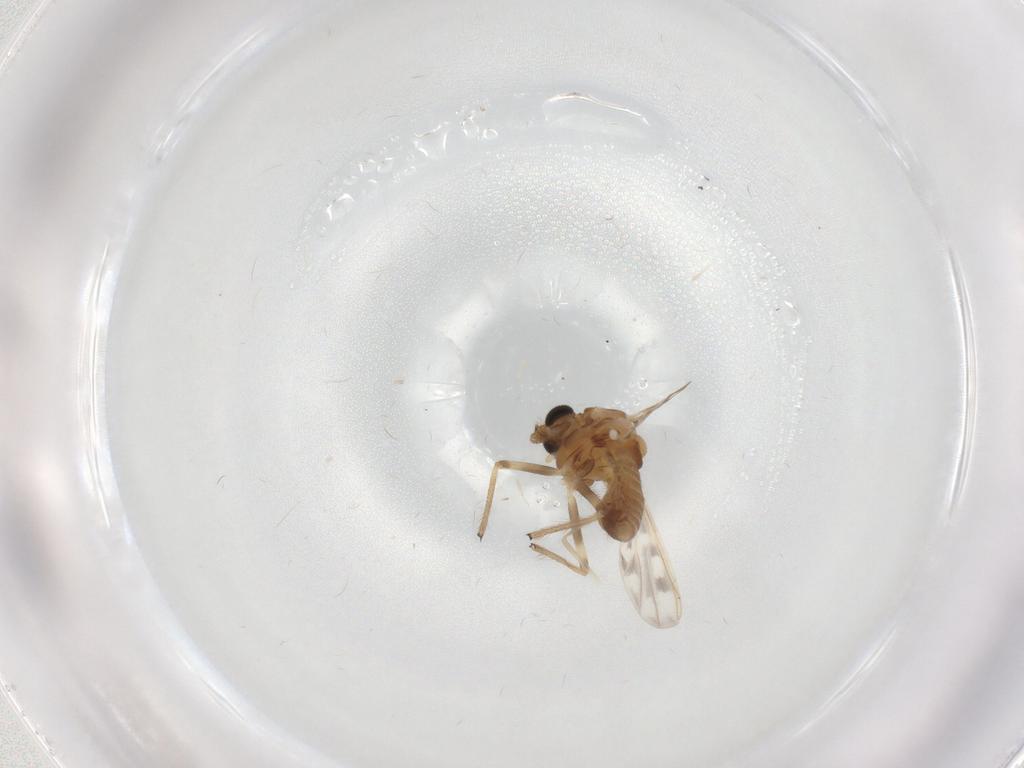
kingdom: Animalia
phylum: Arthropoda
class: Insecta
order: Diptera
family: Chironomidae
